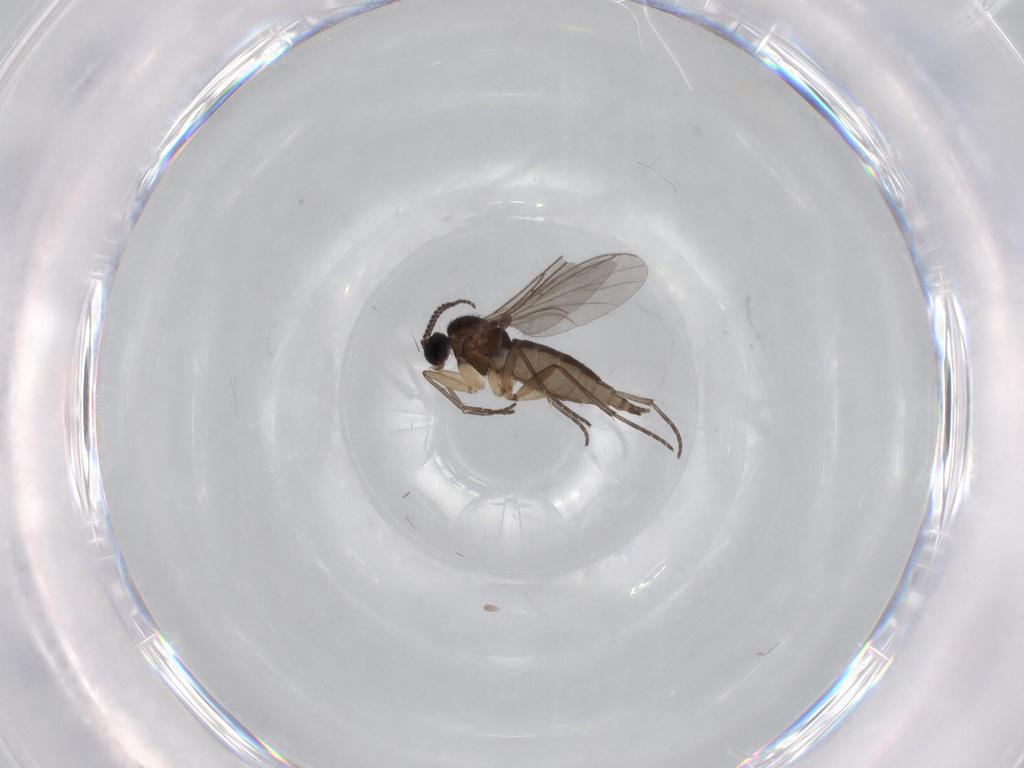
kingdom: Animalia
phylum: Arthropoda
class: Insecta
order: Diptera
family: Sciaridae
